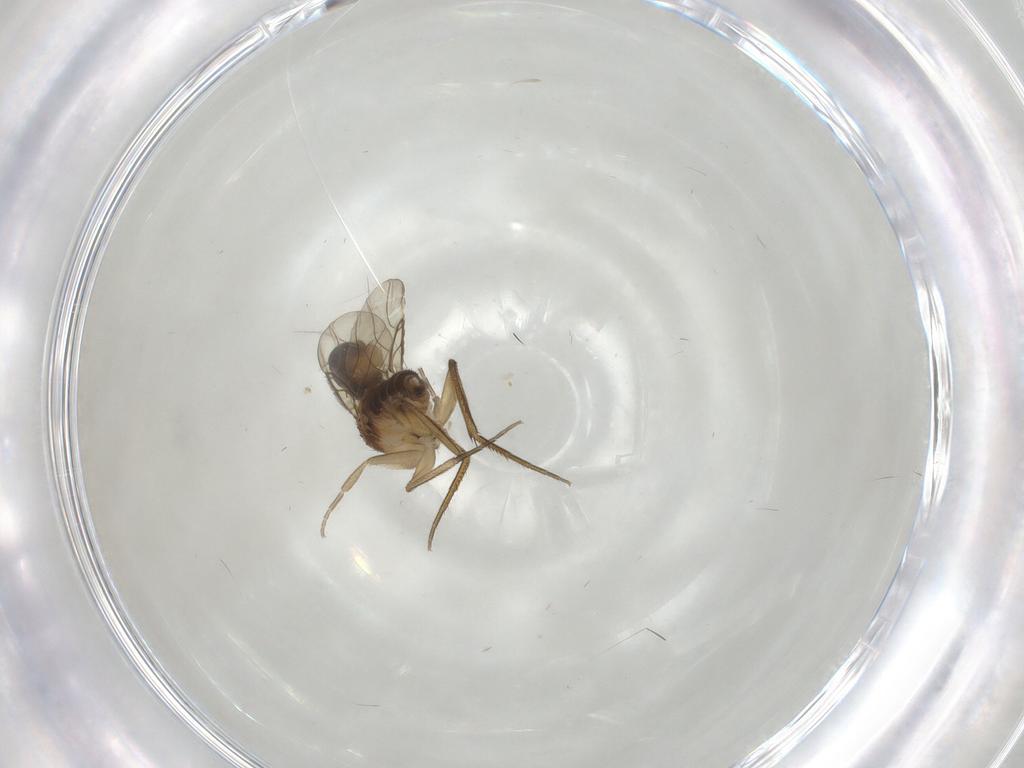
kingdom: Animalia
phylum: Arthropoda
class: Insecta
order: Diptera
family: Phoridae
